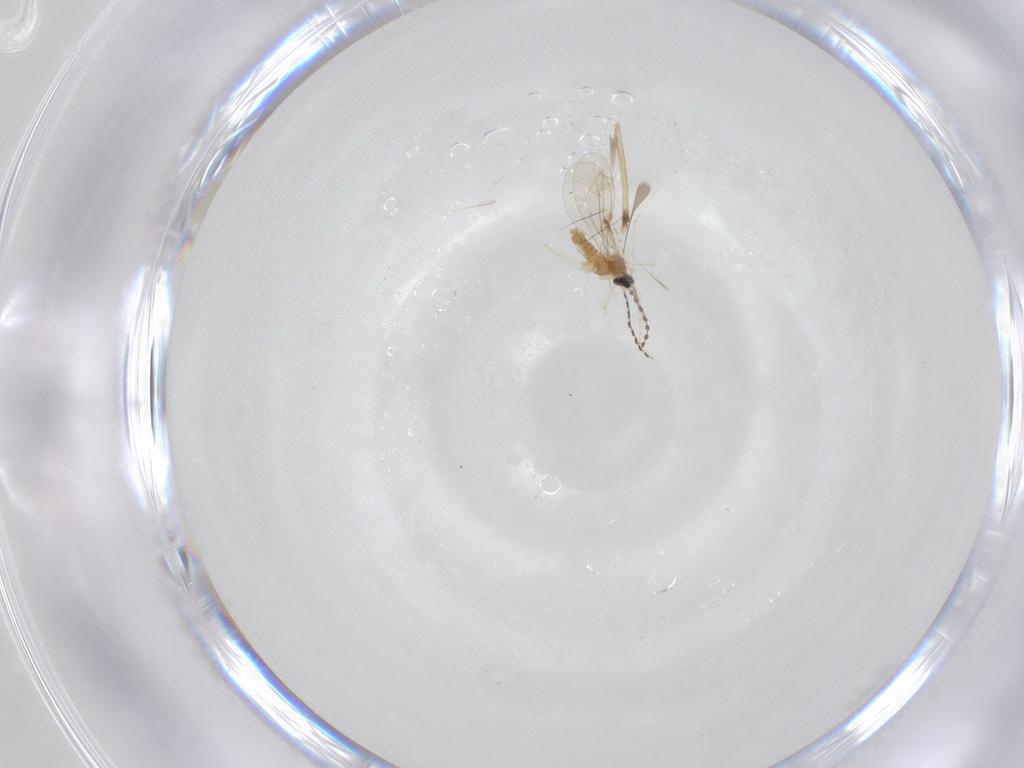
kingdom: Animalia
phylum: Arthropoda
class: Insecta
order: Diptera
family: Cecidomyiidae
